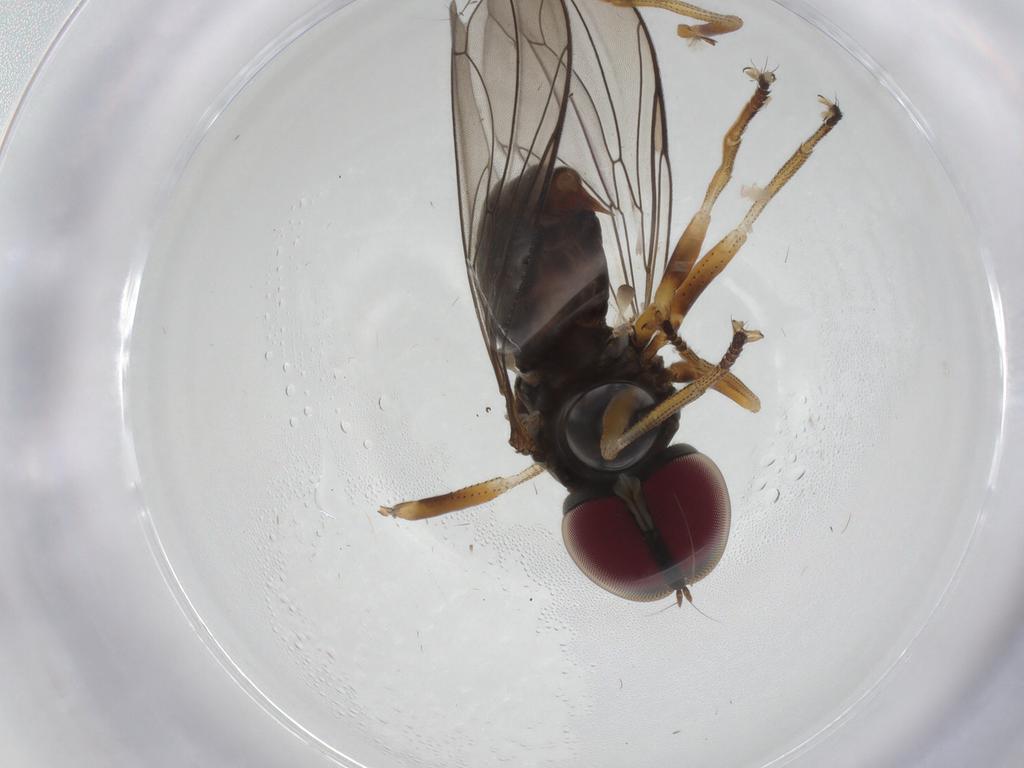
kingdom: Animalia
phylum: Arthropoda
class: Insecta
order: Diptera
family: Pipunculidae
